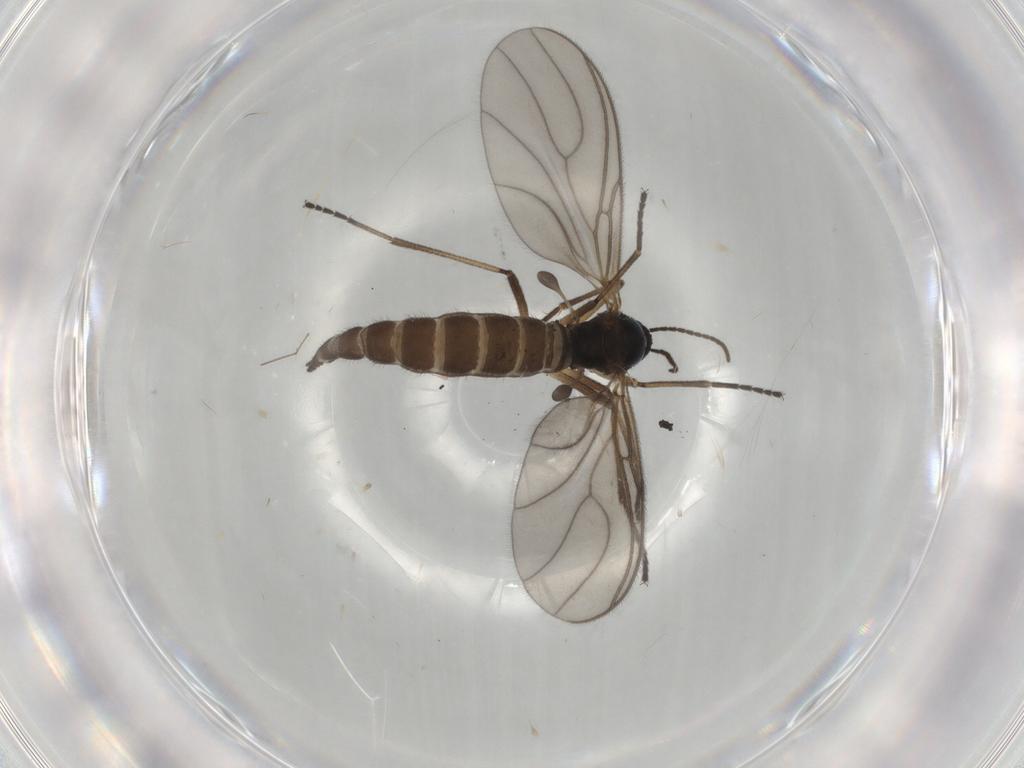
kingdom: Animalia
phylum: Arthropoda
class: Insecta
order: Diptera
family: Sciaridae
